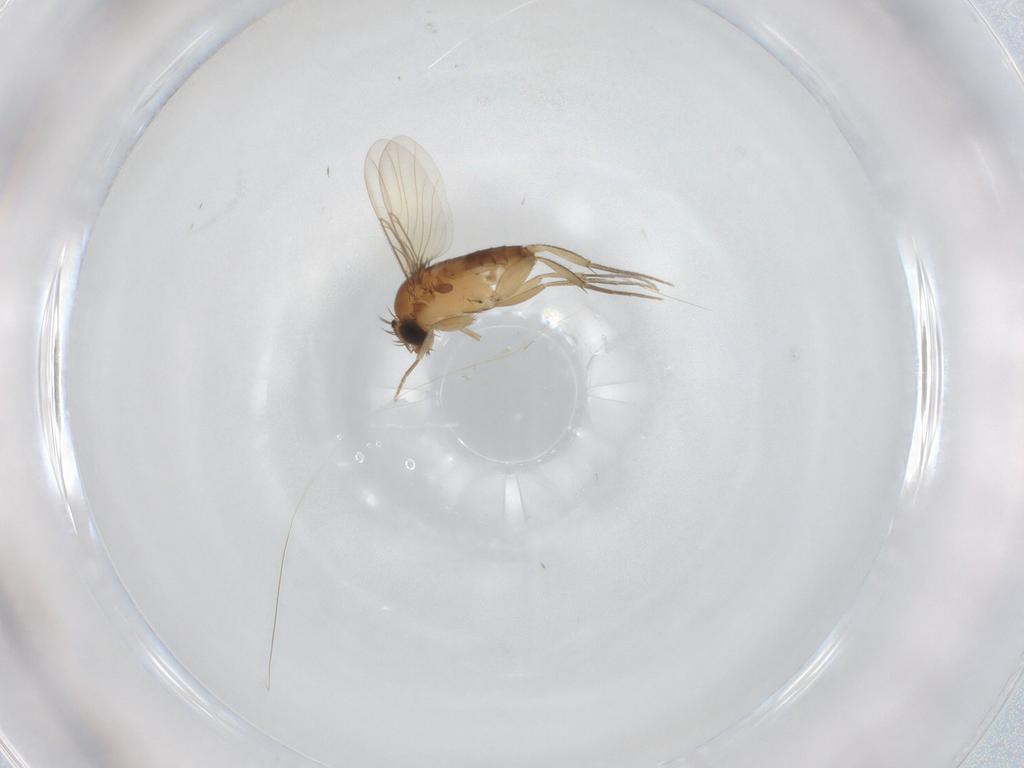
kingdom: Animalia
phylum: Arthropoda
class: Insecta
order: Diptera
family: Phoridae
